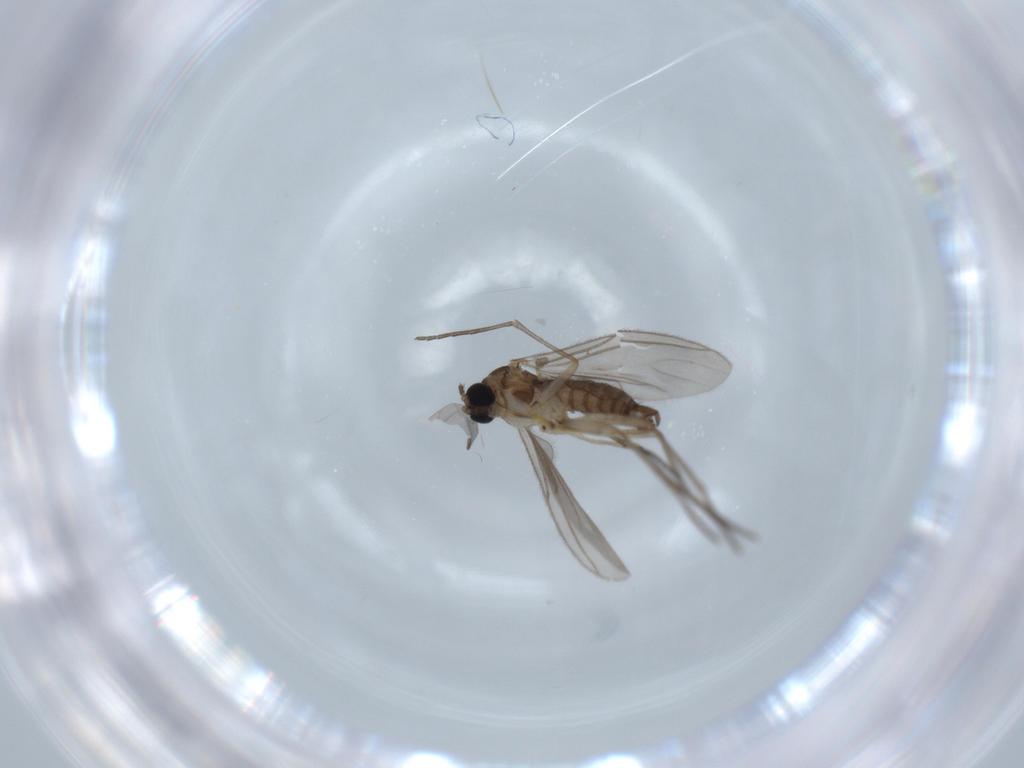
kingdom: Animalia
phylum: Arthropoda
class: Insecta
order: Diptera
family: Sciaridae
